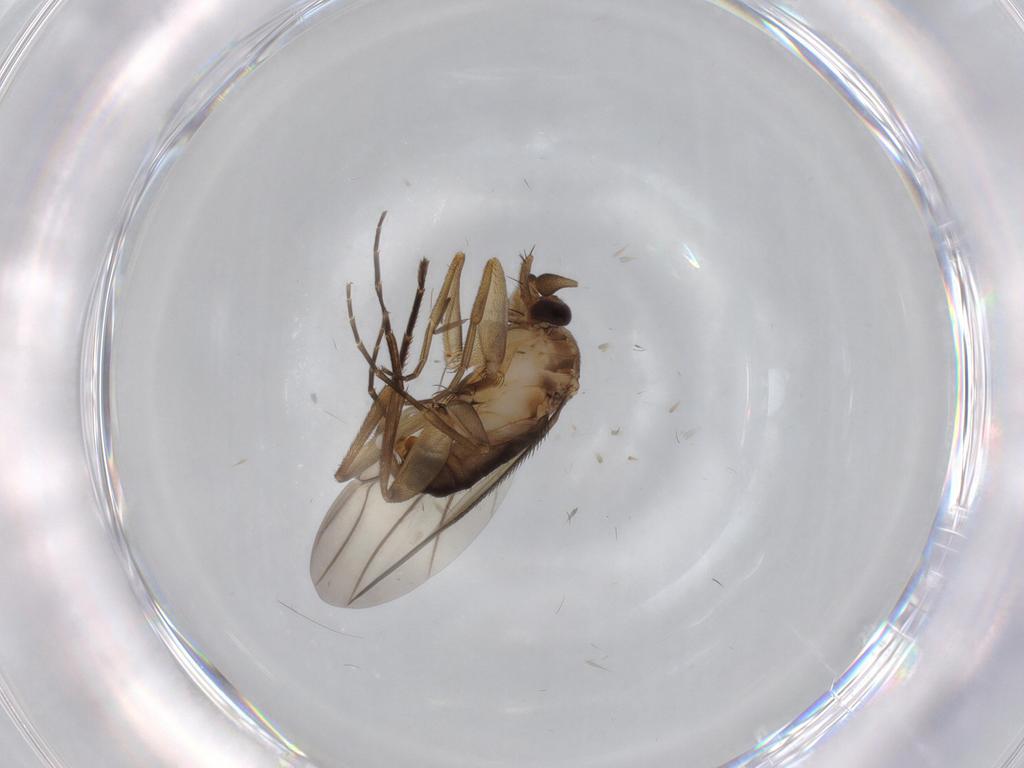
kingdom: Animalia
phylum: Arthropoda
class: Insecta
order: Diptera
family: Phoridae
